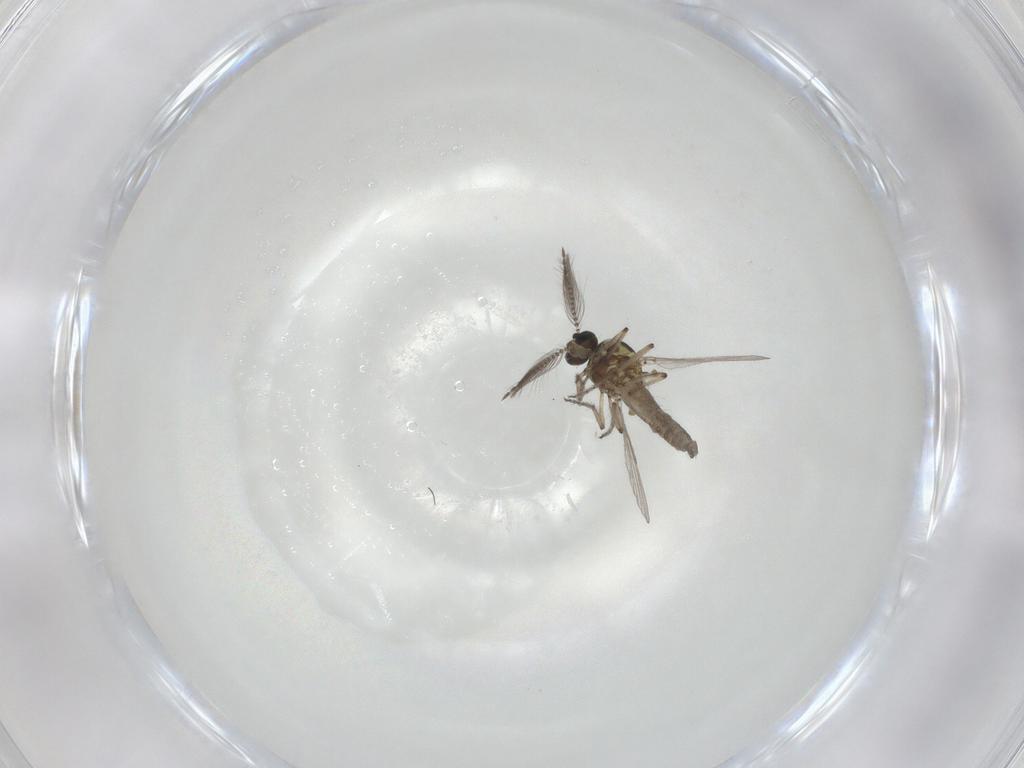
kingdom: Animalia
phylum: Arthropoda
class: Insecta
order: Diptera
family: Ceratopogonidae
